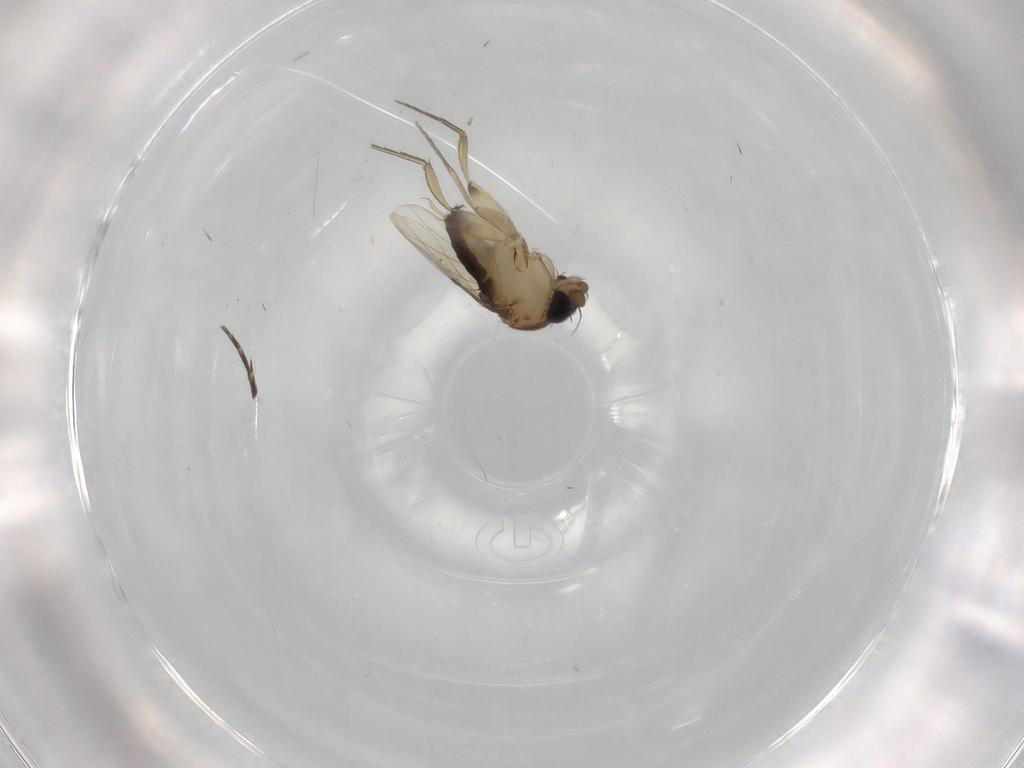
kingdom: Animalia
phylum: Arthropoda
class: Insecta
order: Diptera
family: Phoridae
